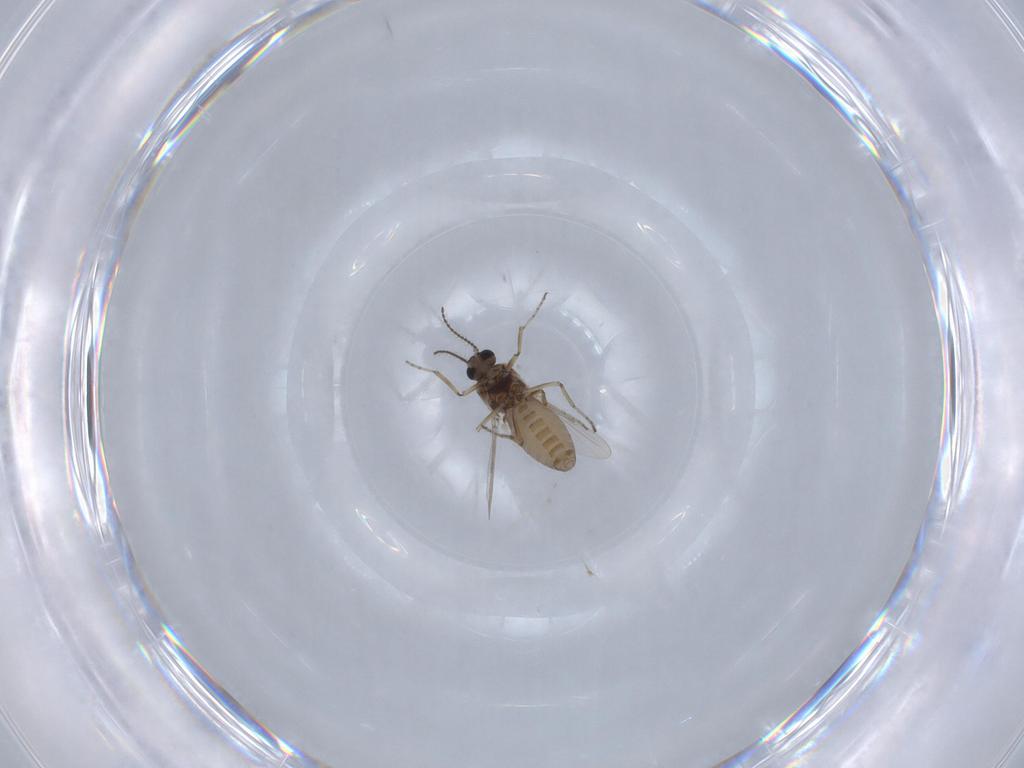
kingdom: Animalia
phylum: Arthropoda
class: Insecta
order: Diptera
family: Ceratopogonidae
